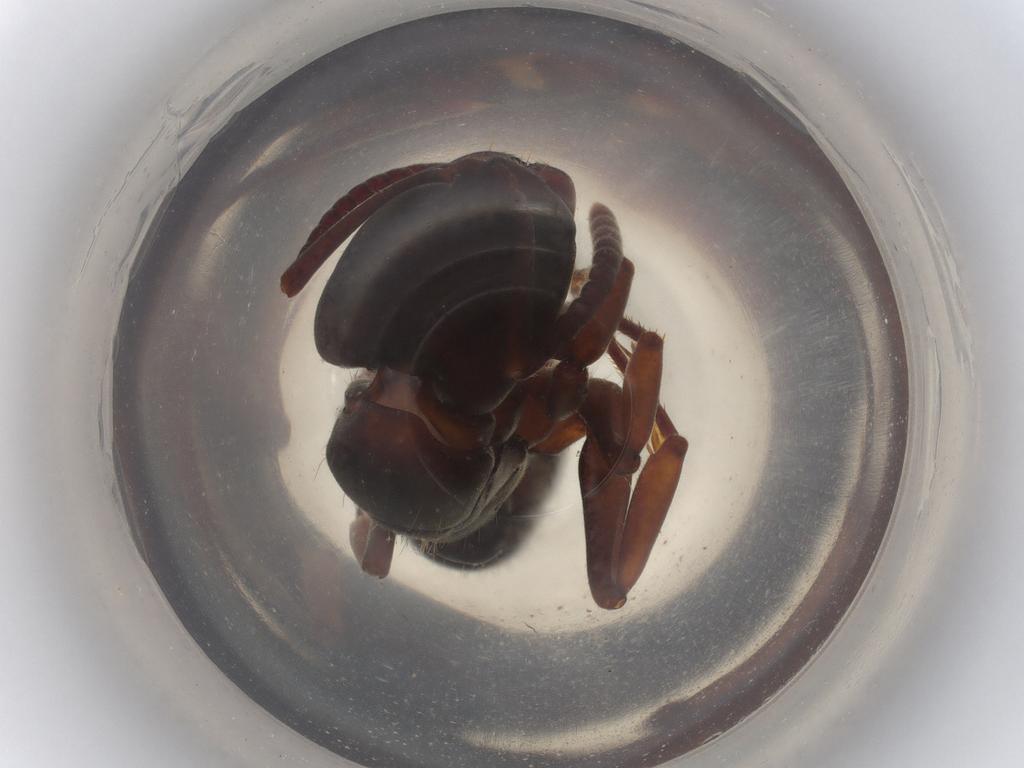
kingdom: Animalia
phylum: Arthropoda
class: Insecta
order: Hymenoptera
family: Formicidae
